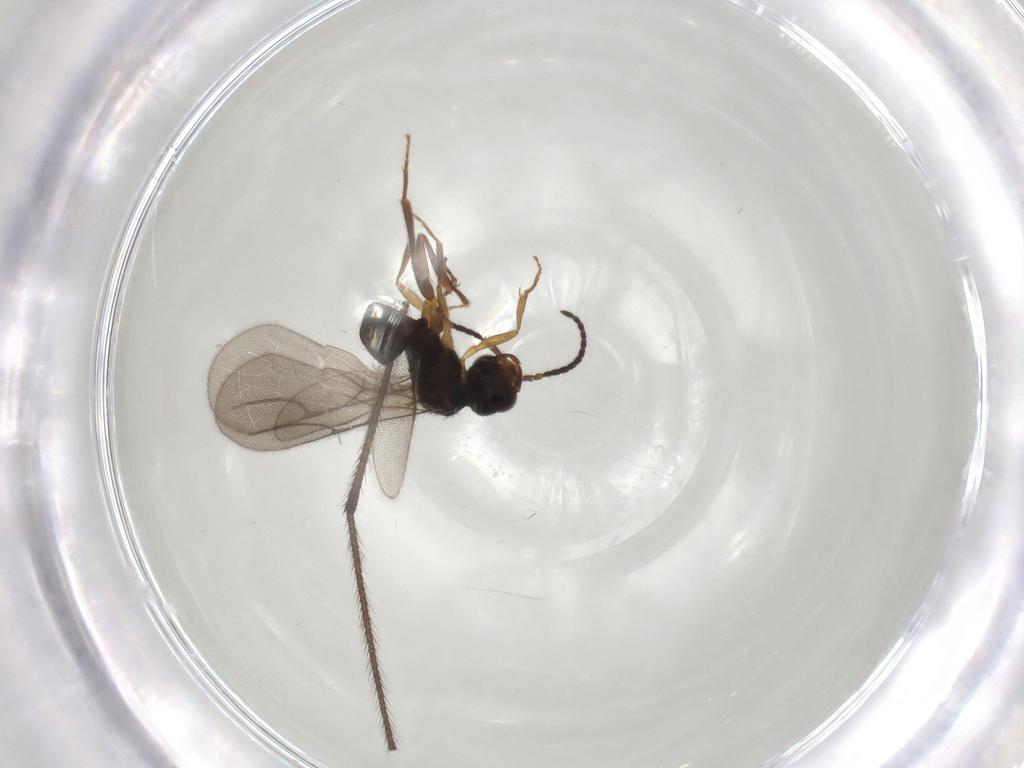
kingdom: Animalia
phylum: Arthropoda
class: Insecta
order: Hymenoptera
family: Bethylidae
